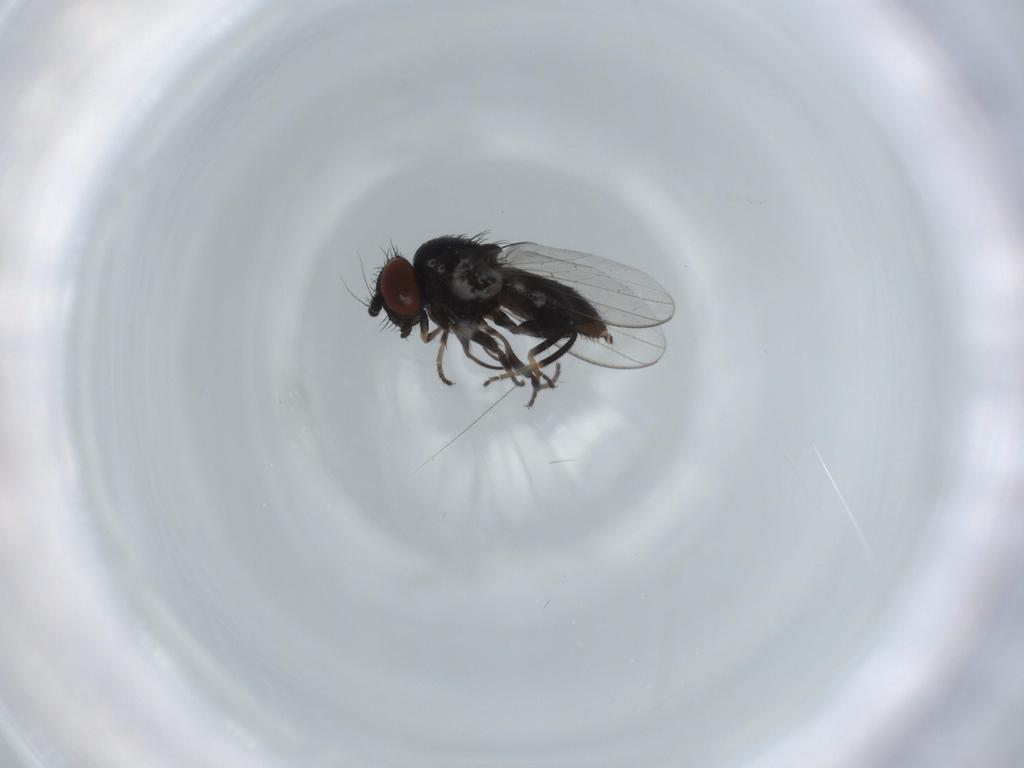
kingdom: Animalia
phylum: Arthropoda
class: Insecta
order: Diptera
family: Milichiidae
